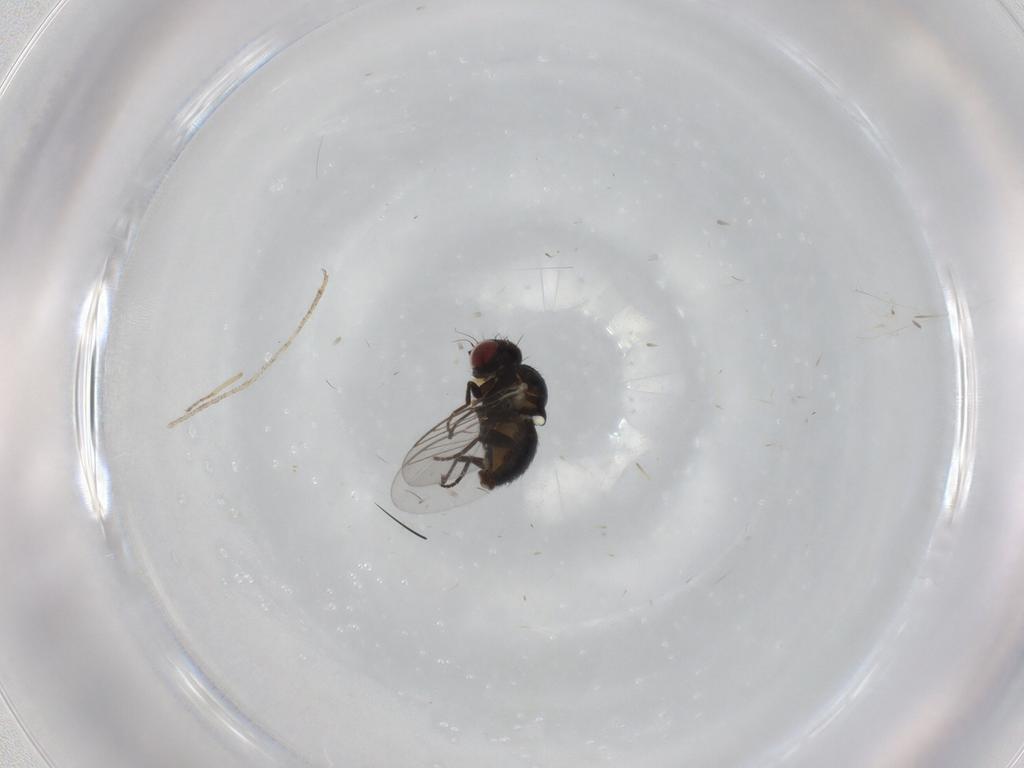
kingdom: Animalia
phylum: Arthropoda
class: Insecta
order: Diptera
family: Agromyzidae
